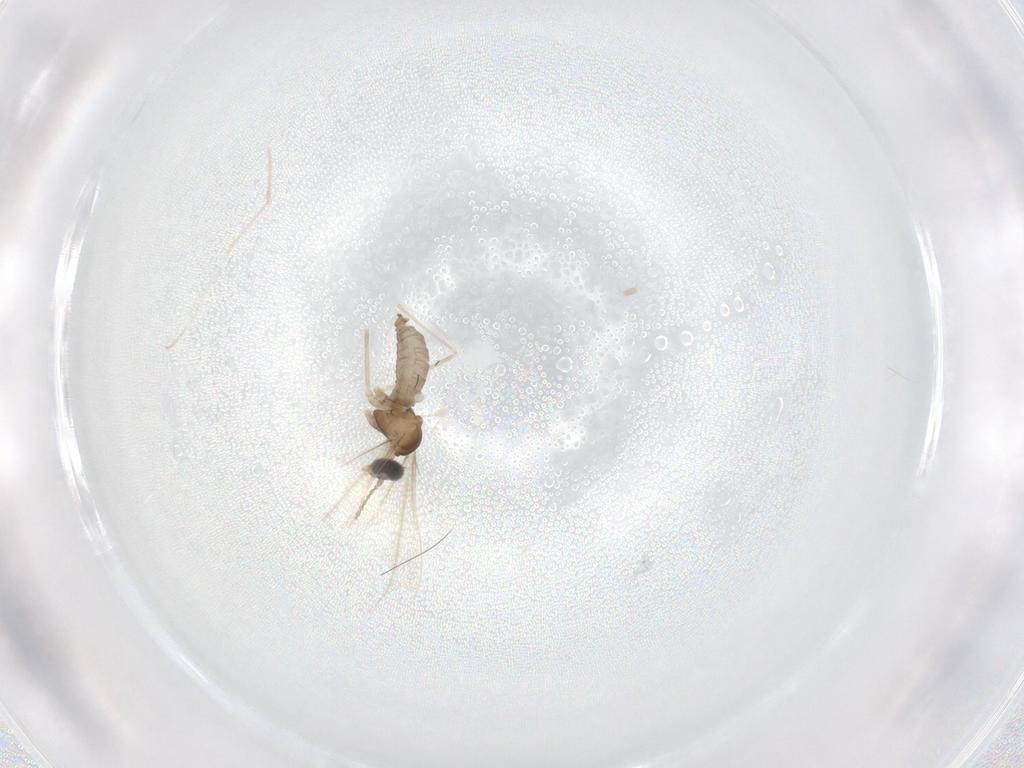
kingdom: Animalia
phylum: Arthropoda
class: Insecta
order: Diptera
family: Cecidomyiidae
